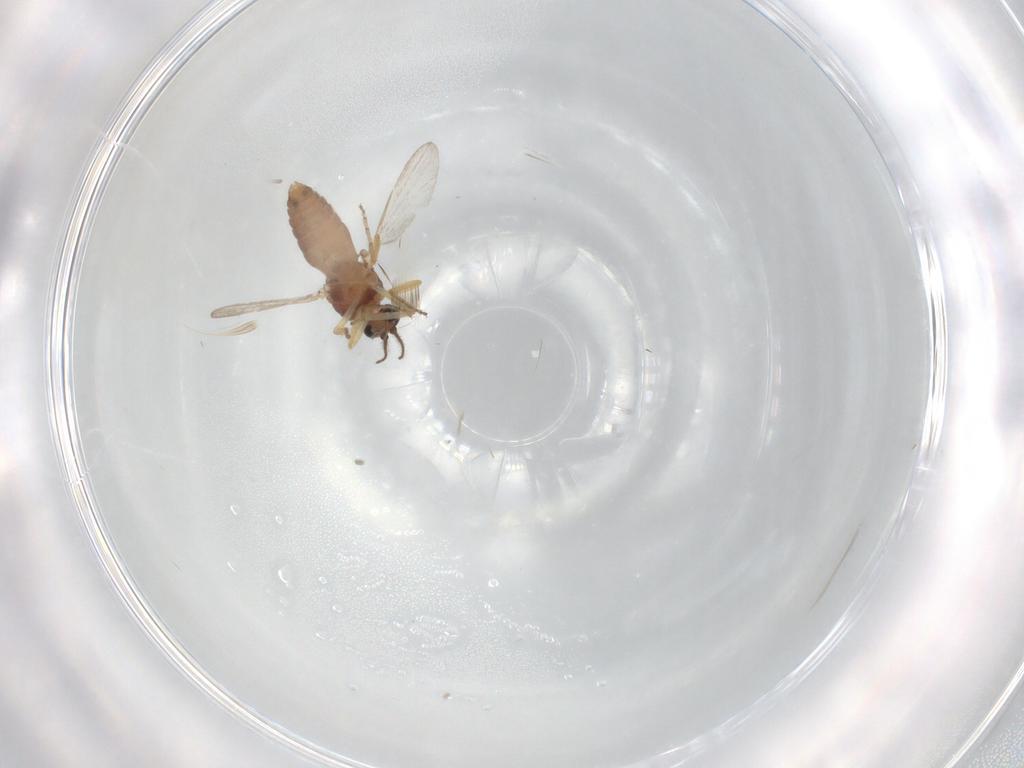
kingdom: Animalia
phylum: Arthropoda
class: Insecta
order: Diptera
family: Ceratopogonidae
